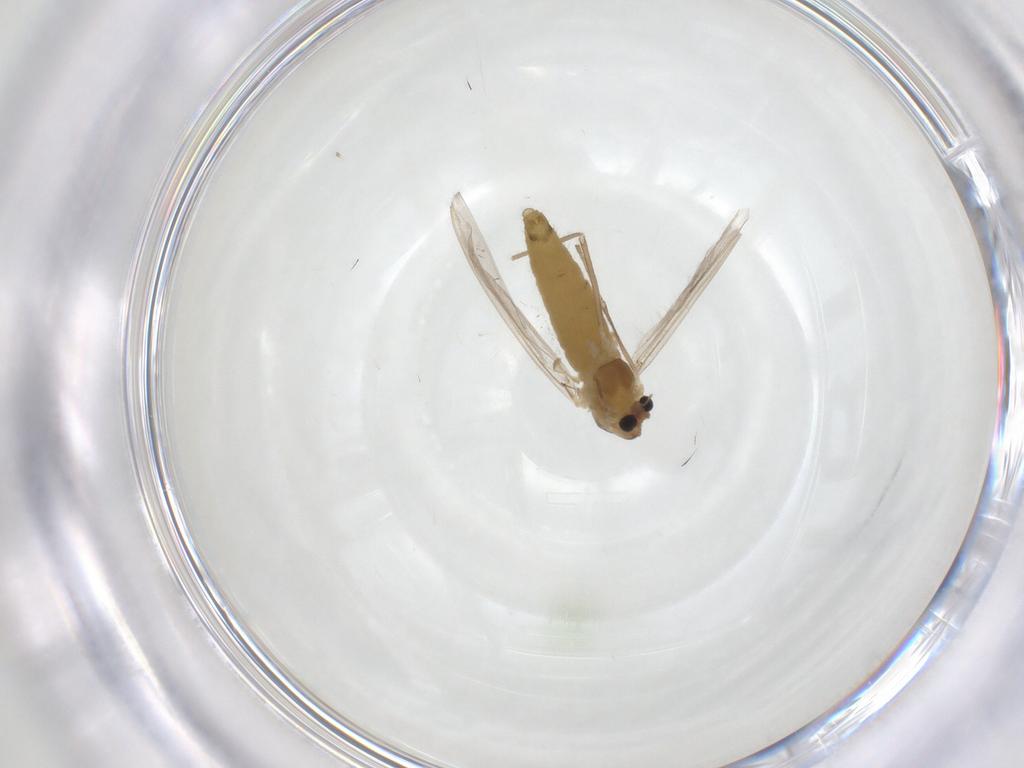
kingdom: Animalia
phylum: Arthropoda
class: Insecta
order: Diptera
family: Chironomidae
